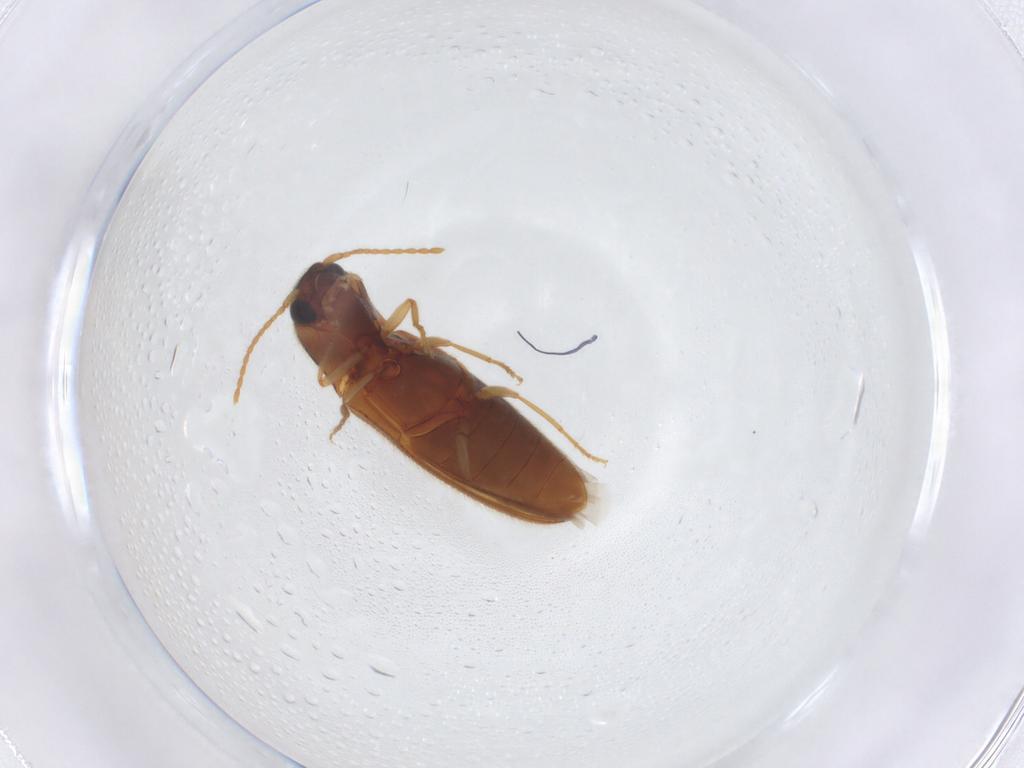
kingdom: Animalia
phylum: Arthropoda
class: Insecta
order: Coleoptera
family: Elateridae
